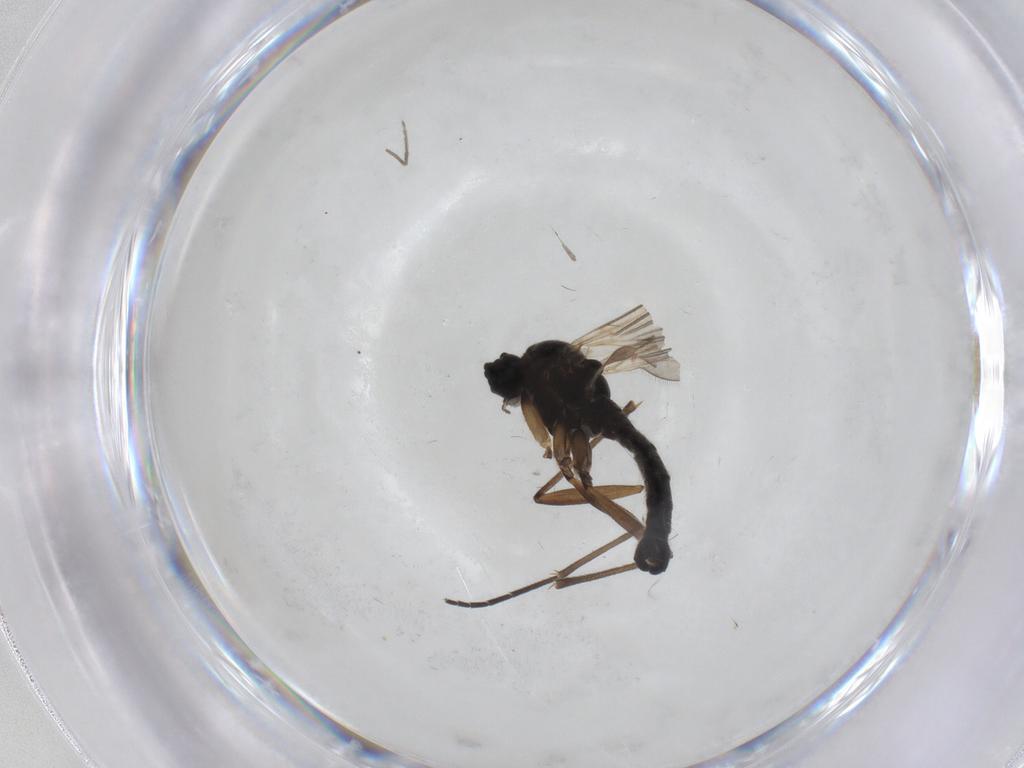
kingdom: Animalia
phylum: Arthropoda
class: Insecta
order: Diptera
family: Sciaridae
